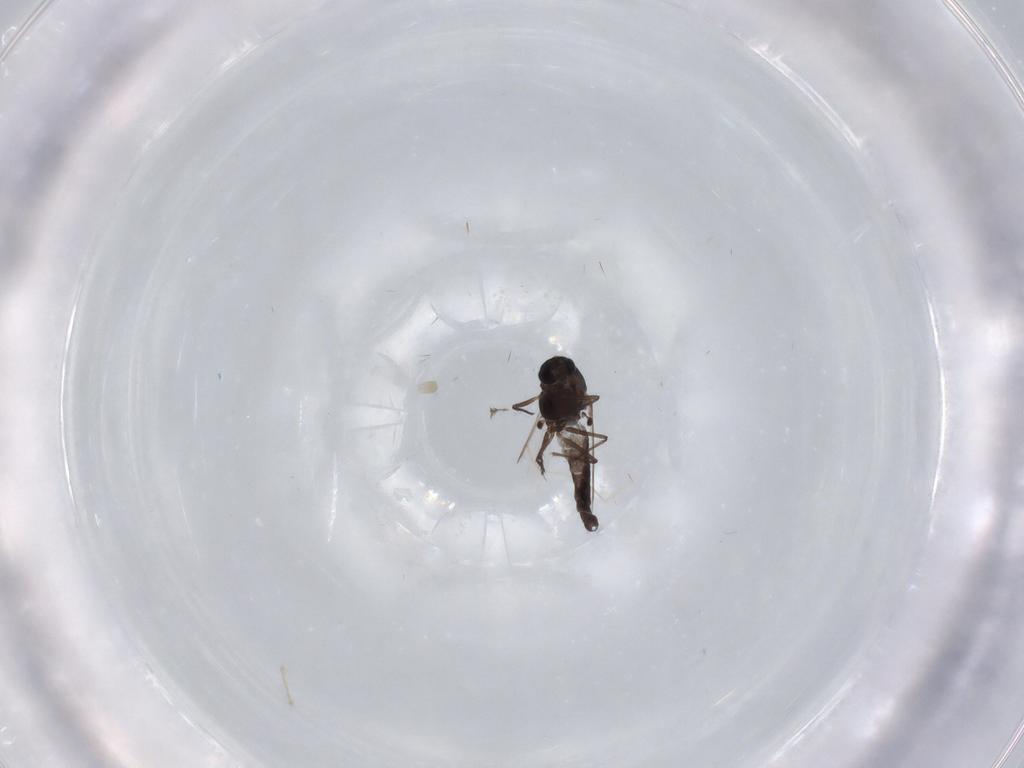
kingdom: Animalia
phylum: Arthropoda
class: Insecta
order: Diptera
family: Chironomidae
